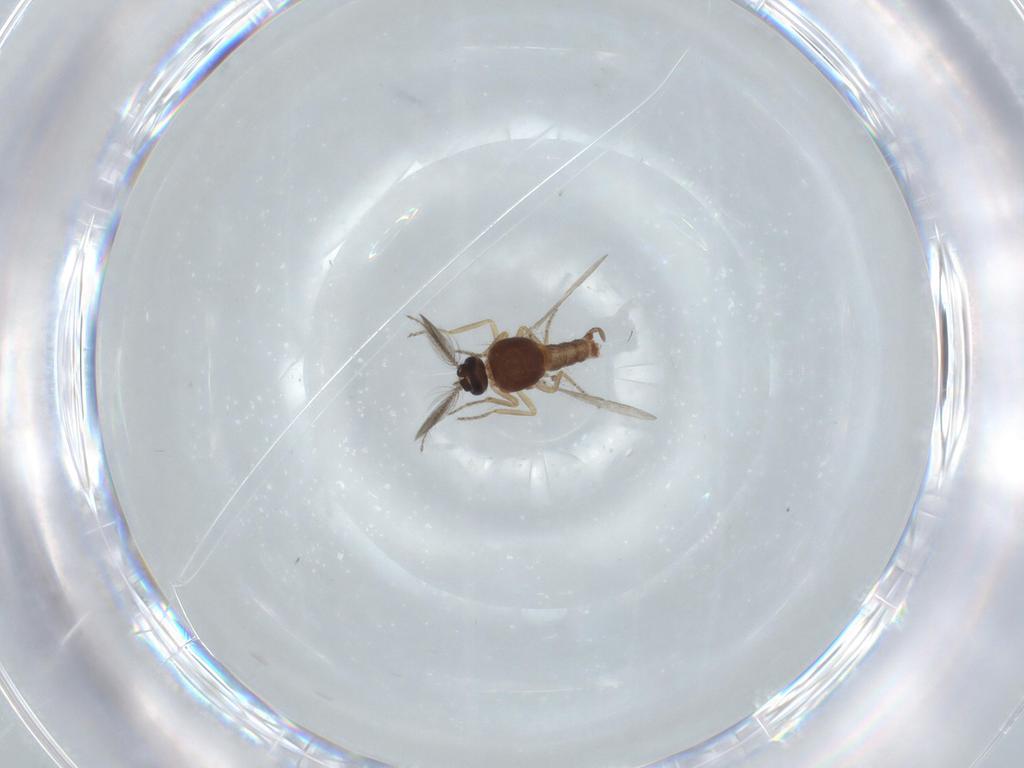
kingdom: Animalia
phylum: Arthropoda
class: Insecta
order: Diptera
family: Ceratopogonidae
